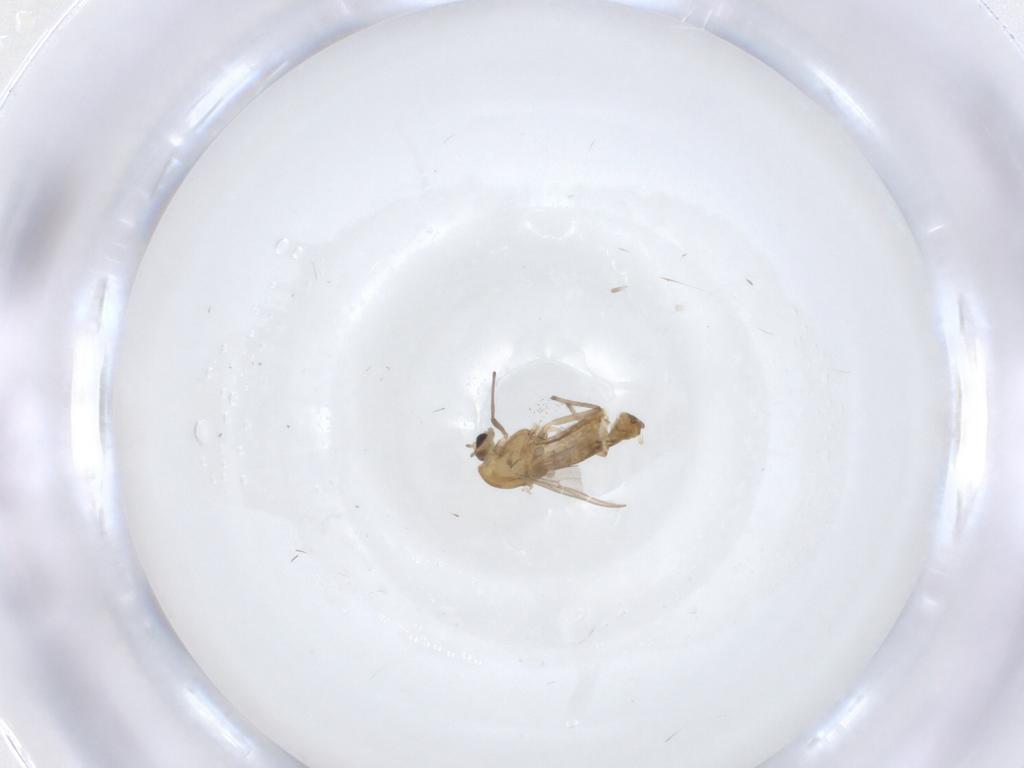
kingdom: Animalia
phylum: Arthropoda
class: Insecta
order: Diptera
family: Chironomidae
